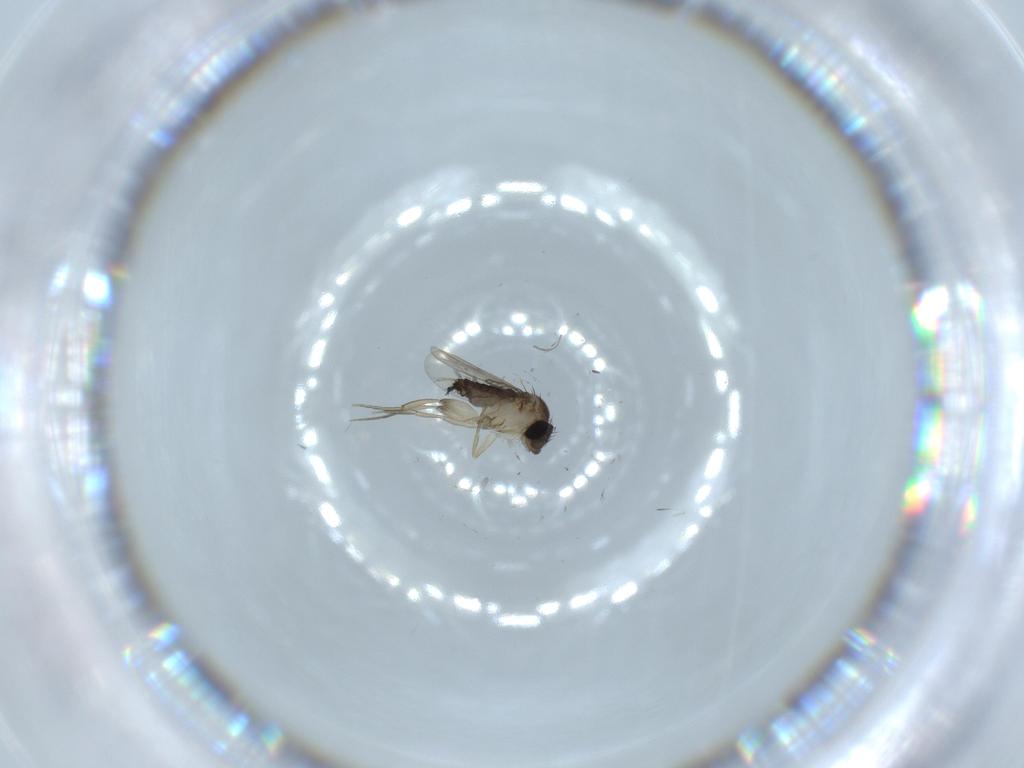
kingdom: Animalia
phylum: Arthropoda
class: Insecta
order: Diptera
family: Phoridae
